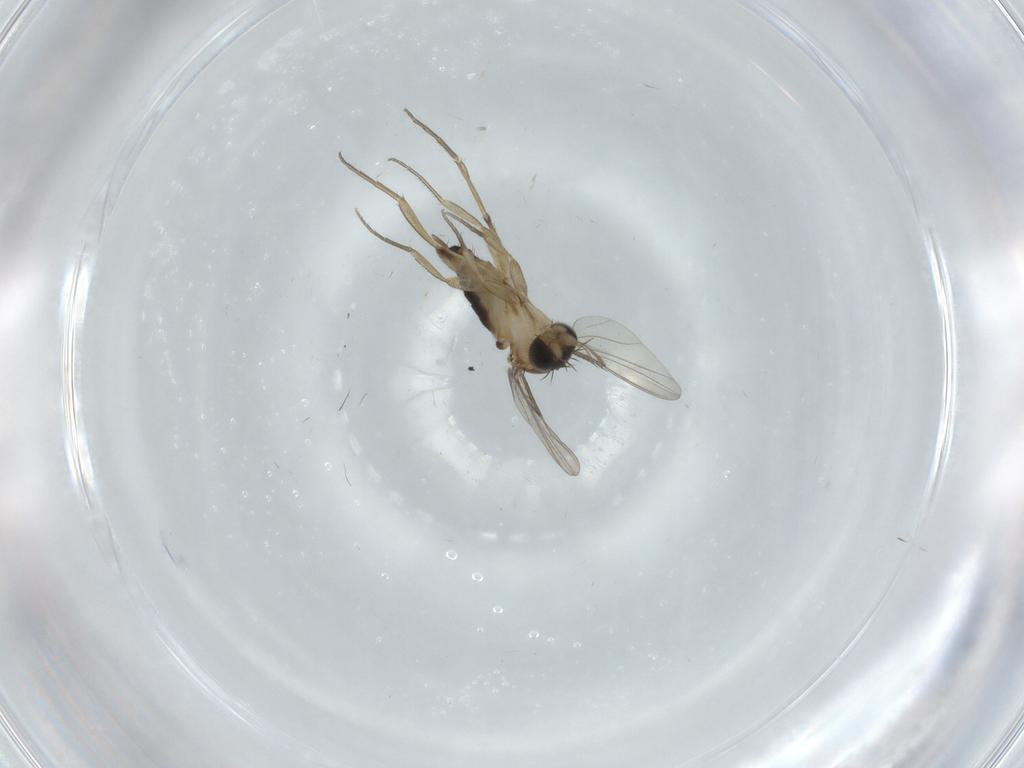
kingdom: Animalia
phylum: Arthropoda
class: Insecta
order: Diptera
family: Phoridae
